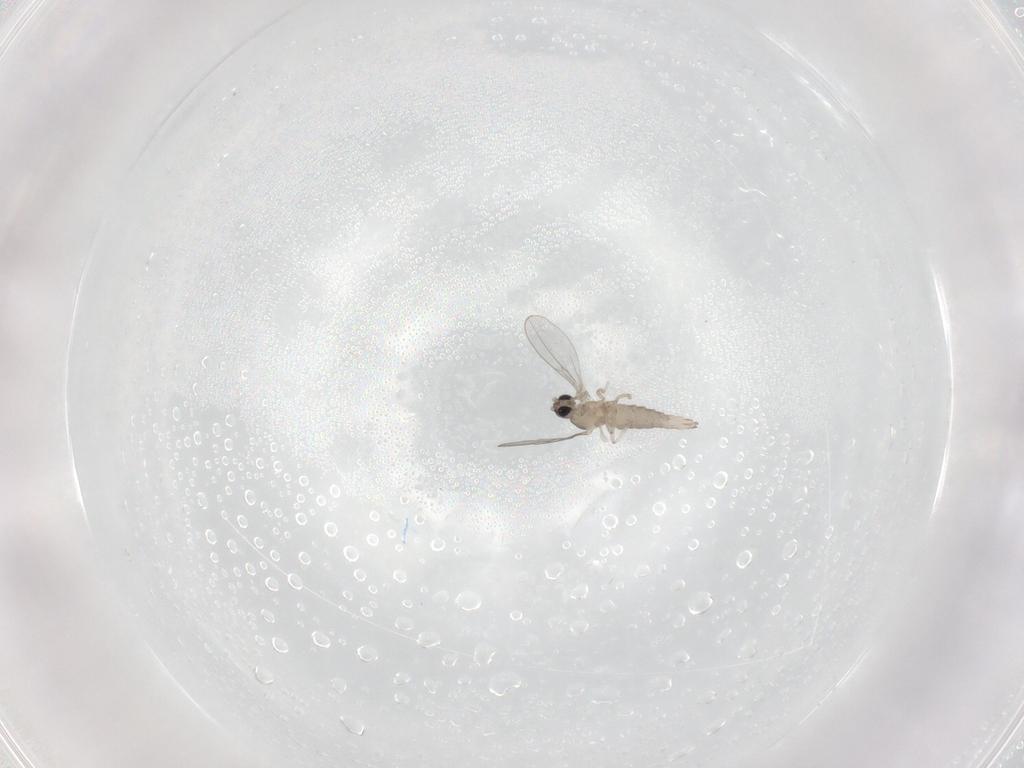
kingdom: Animalia
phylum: Arthropoda
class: Insecta
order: Diptera
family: Cecidomyiidae
